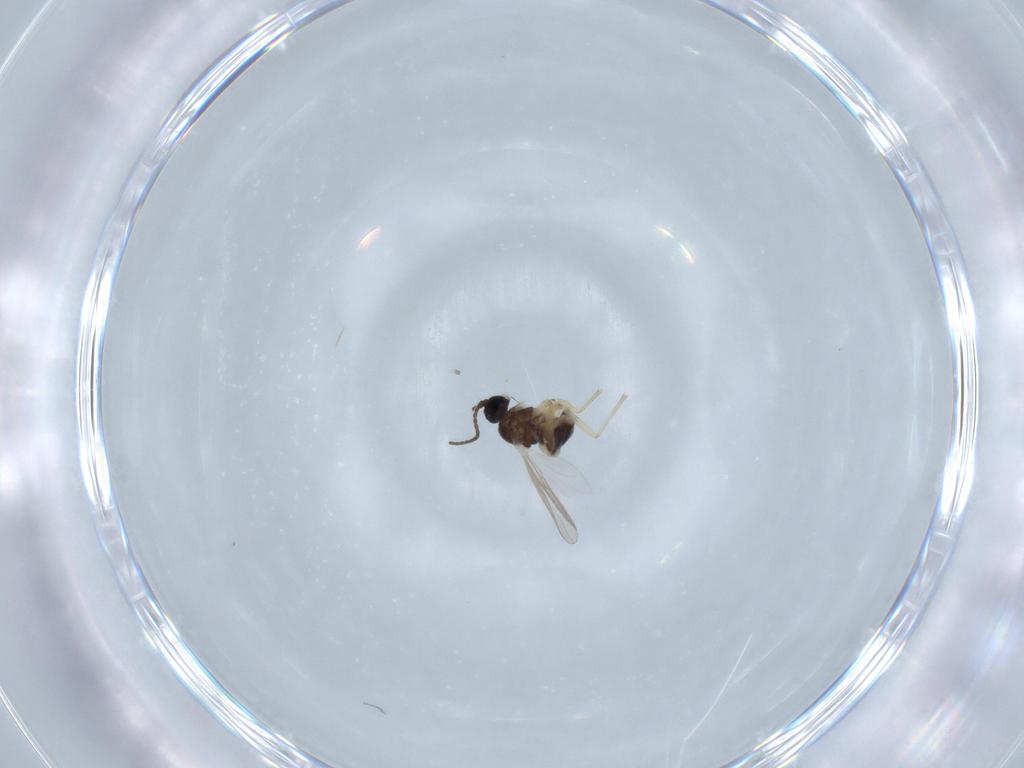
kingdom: Animalia
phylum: Arthropoda
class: Insecta
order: Diptera
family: Sciaridae
